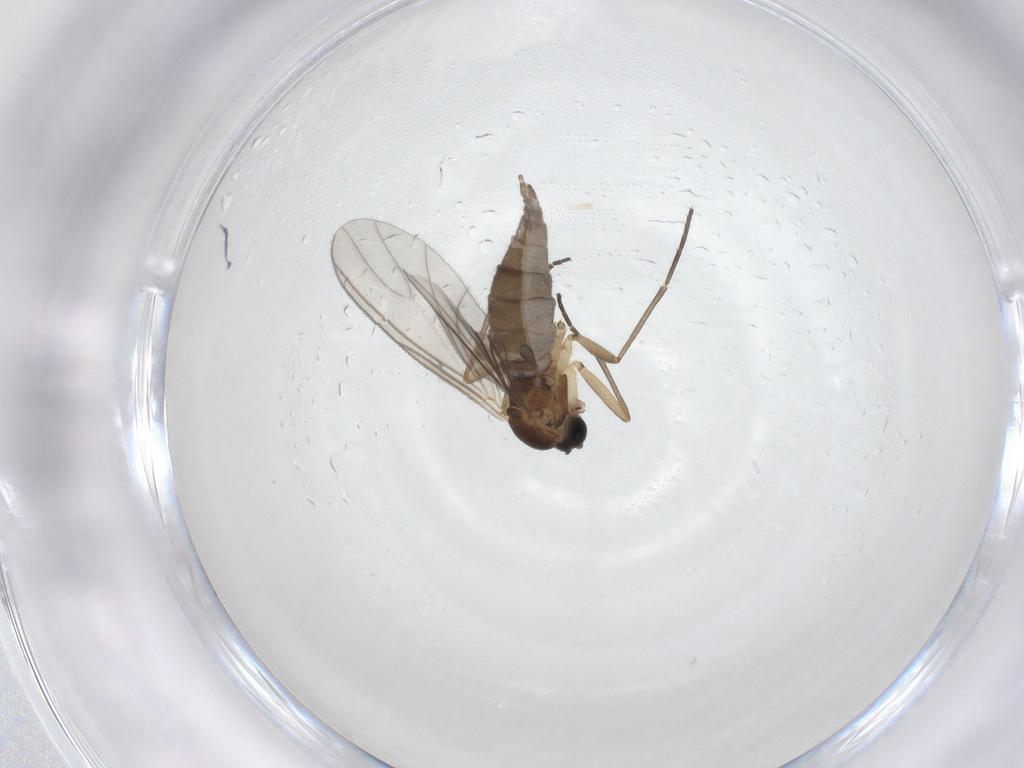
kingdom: Animalia
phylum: Arthropoda
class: Insecta
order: Diptera
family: Sciaridae
